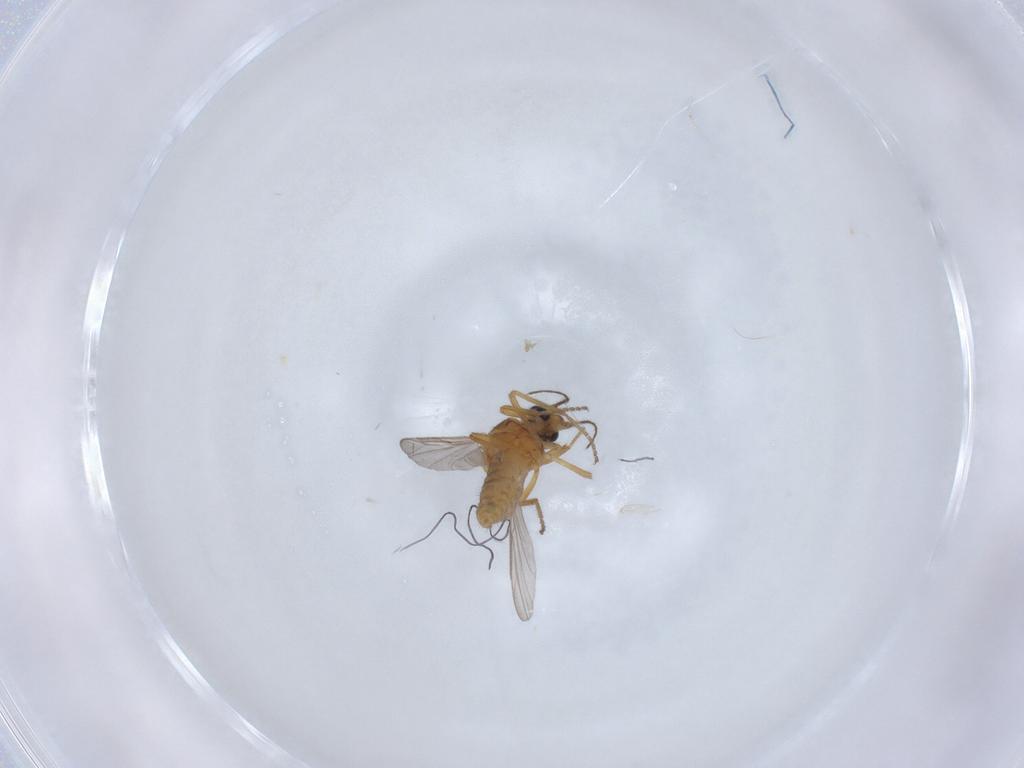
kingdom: Animalia
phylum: Arthropoda
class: Insecta
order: Diptera
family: Ceratopogonidae
